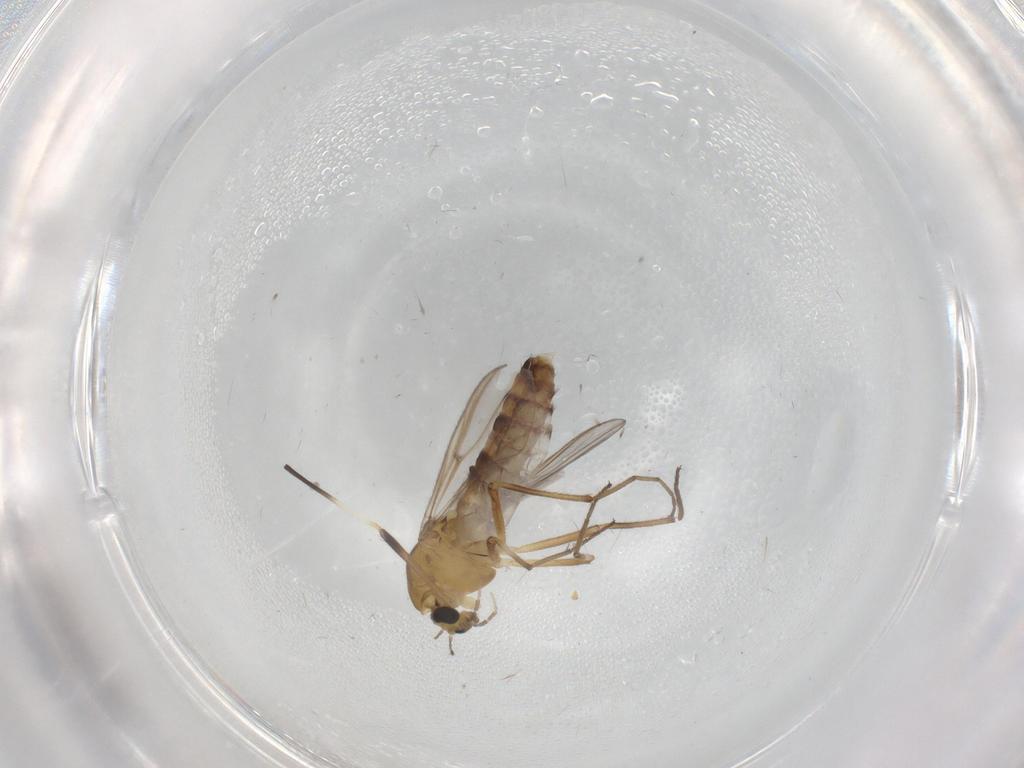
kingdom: Animalia
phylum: Arthropoda
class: Insecta
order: Diptera
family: Chironomidae
